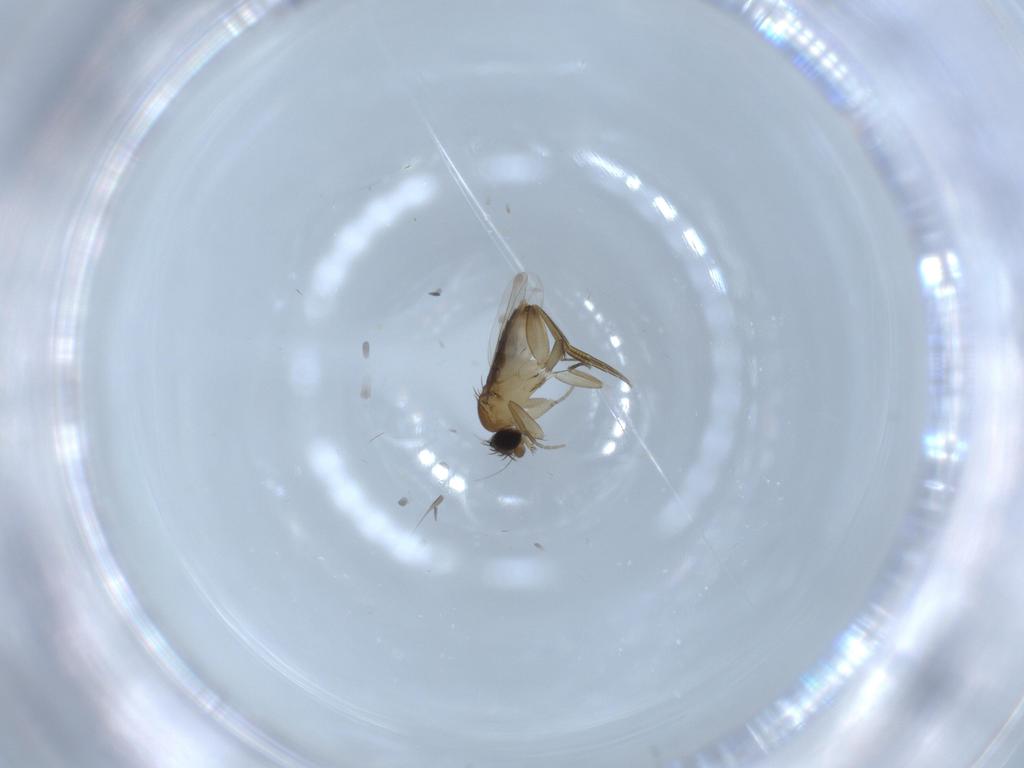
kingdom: Animalia
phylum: Arthropoda
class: Insecta
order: Diptera
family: Phoridae
